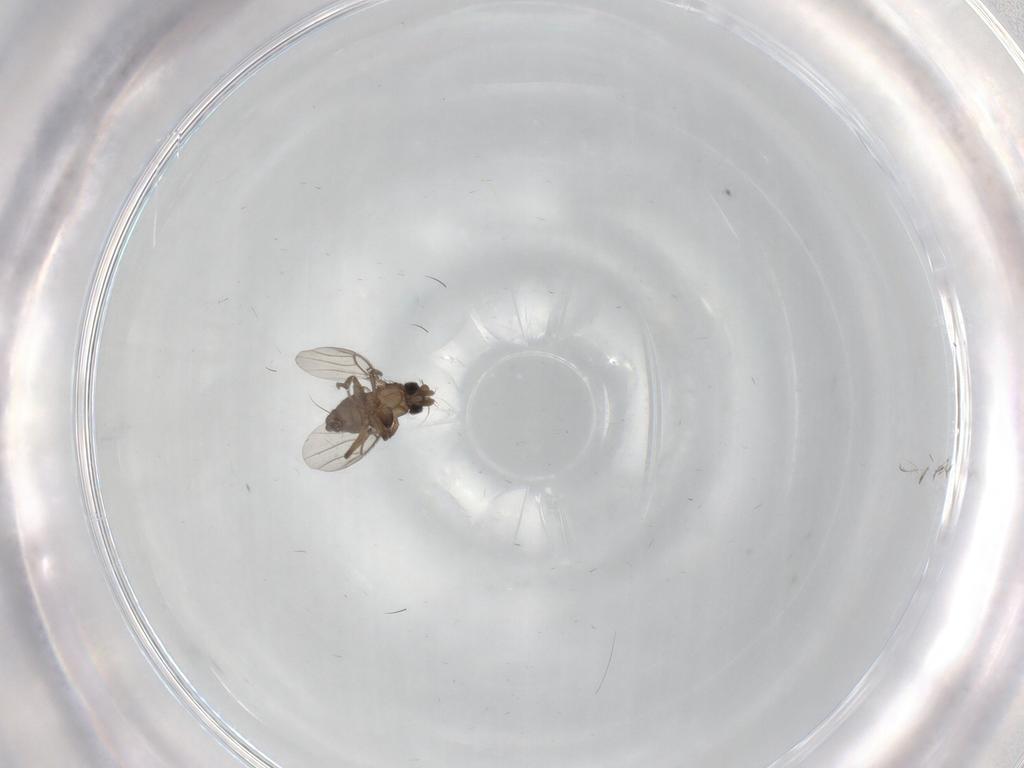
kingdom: Animalia
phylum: Arthropoda
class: Insecta
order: Diptera
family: Chironomidae
